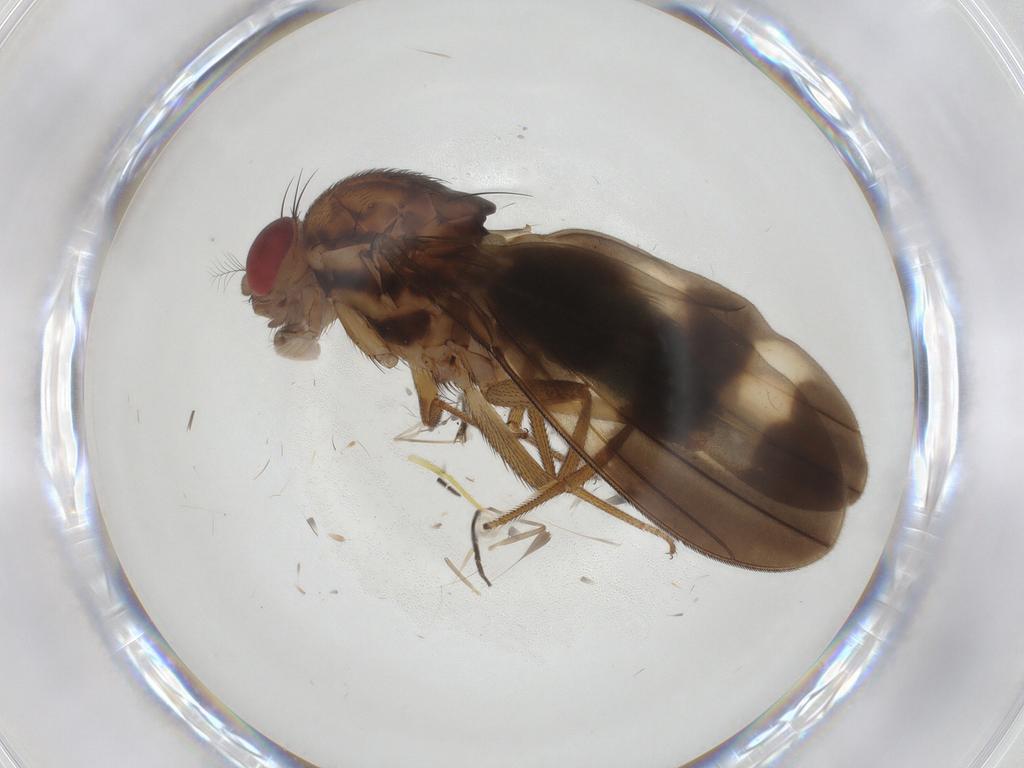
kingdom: Animalia
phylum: Arthropoda
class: Insecta
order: Diptera
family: Drosophilidae
